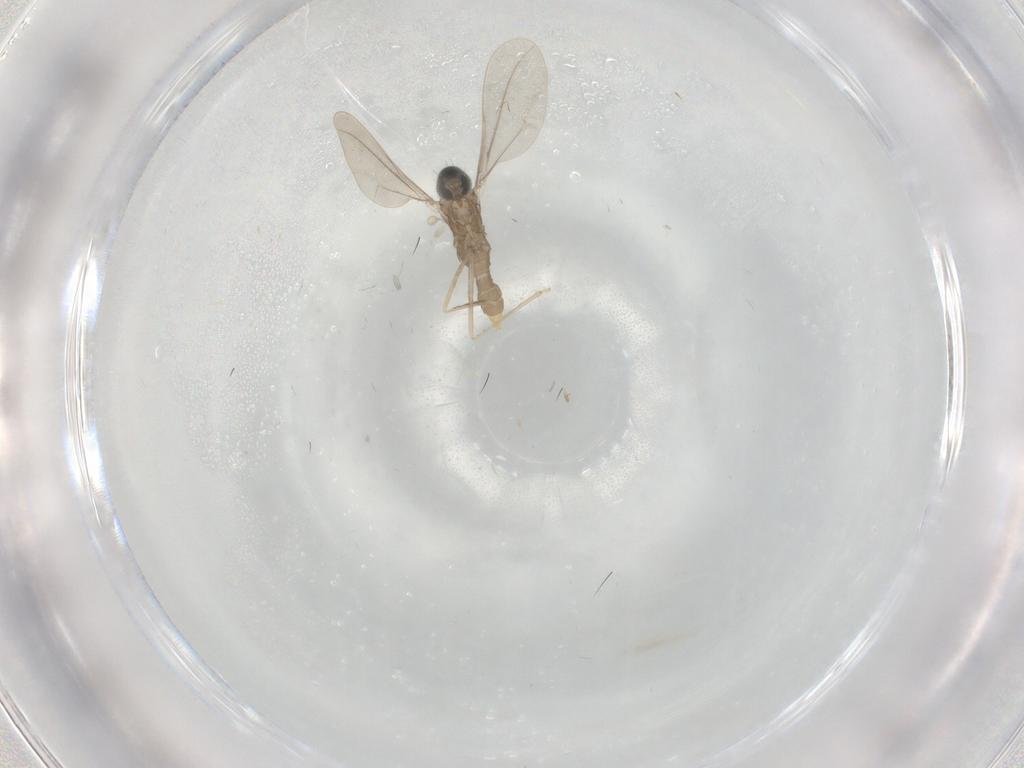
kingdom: Animalia
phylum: Arthropoda
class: Insecta
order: Diptera
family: Cecidomyiidae
